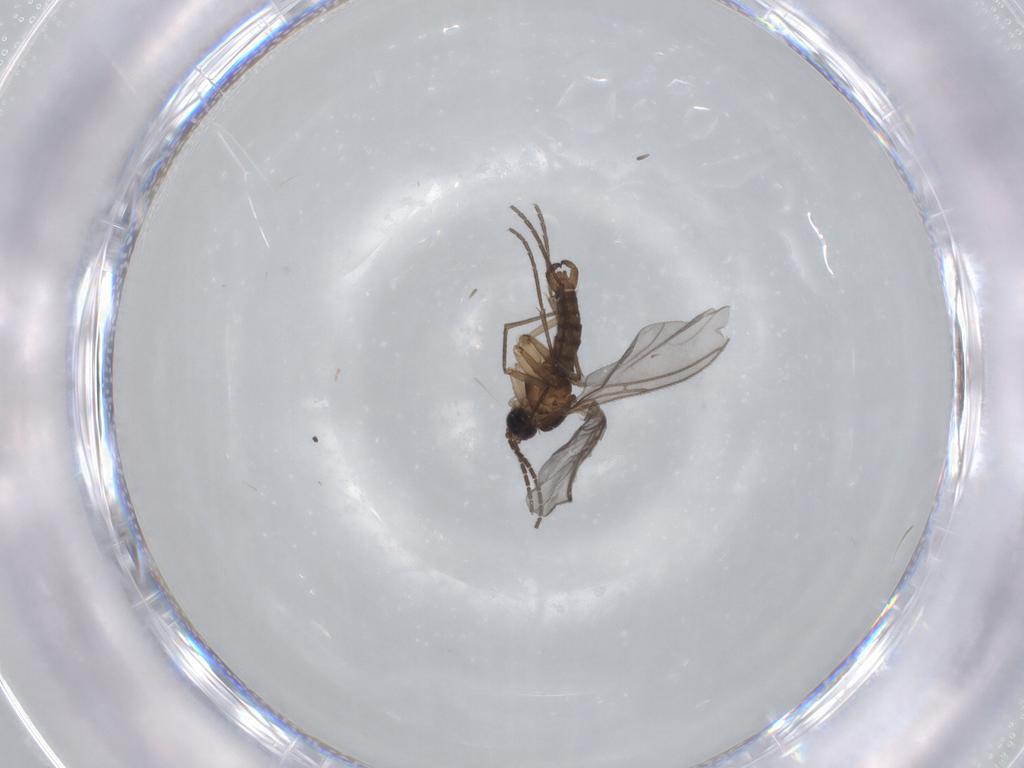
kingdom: Animalia
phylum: Arthropoda
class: Insecta
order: Diptera
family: Sciaridae
